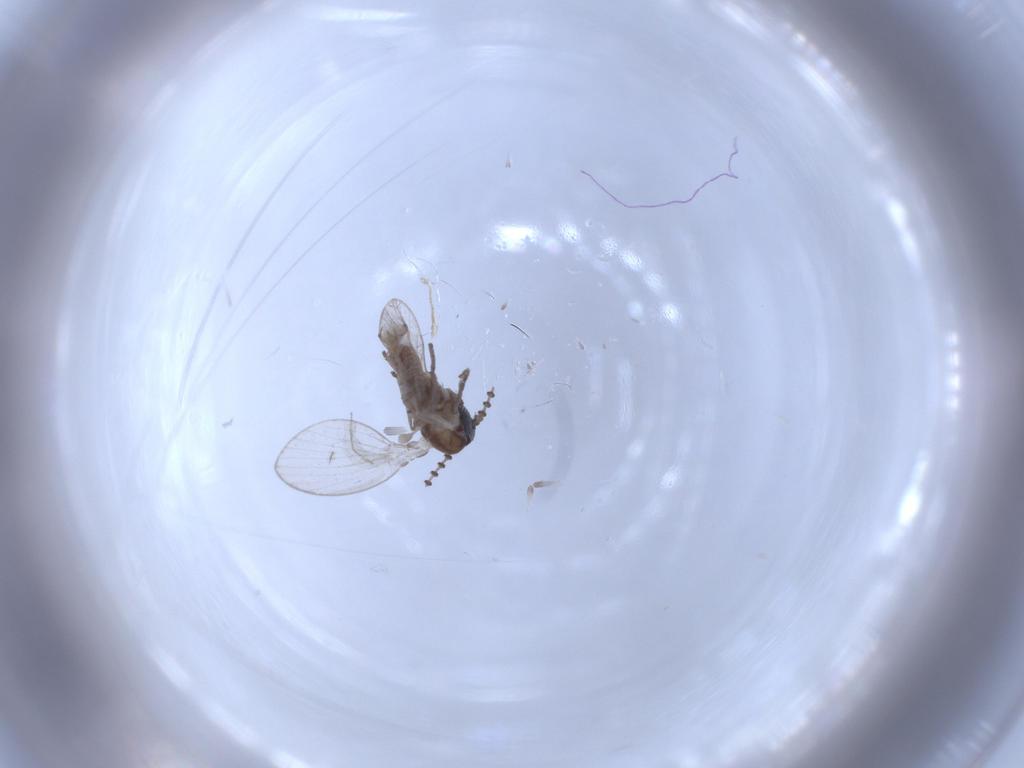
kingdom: Animalia
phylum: Arthropoda
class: Insecta
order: Diptera
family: Psychodidae
